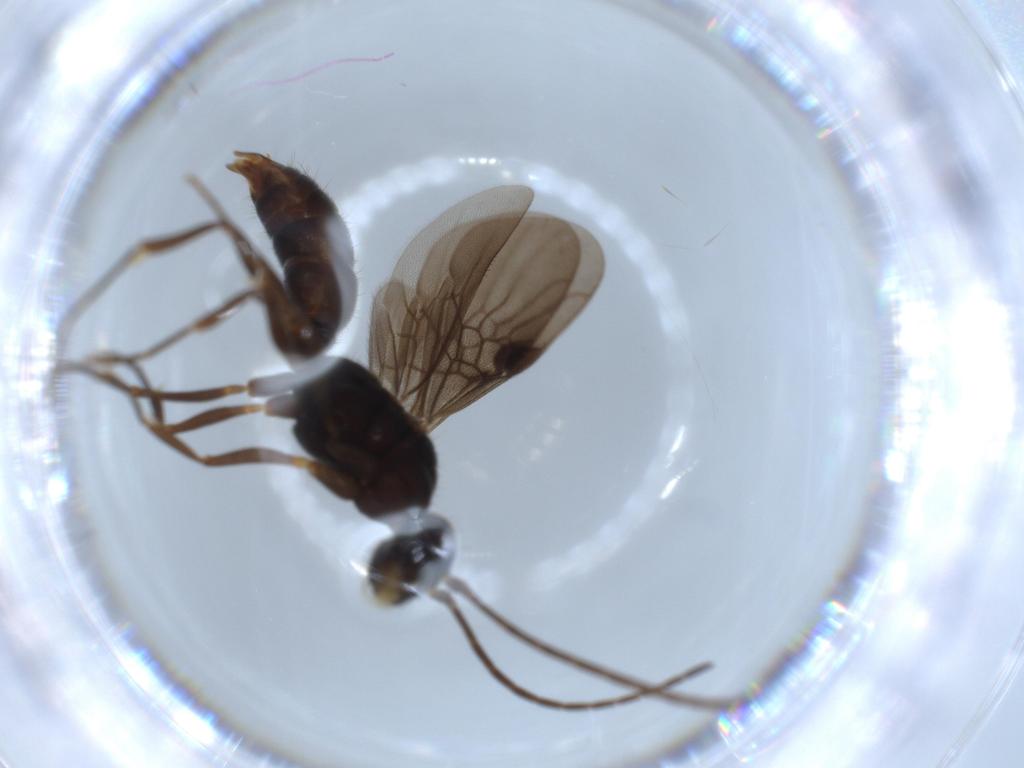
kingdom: Animalia
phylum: Arthropoda
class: Insecta
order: Hymenoptera
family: Formicidae
